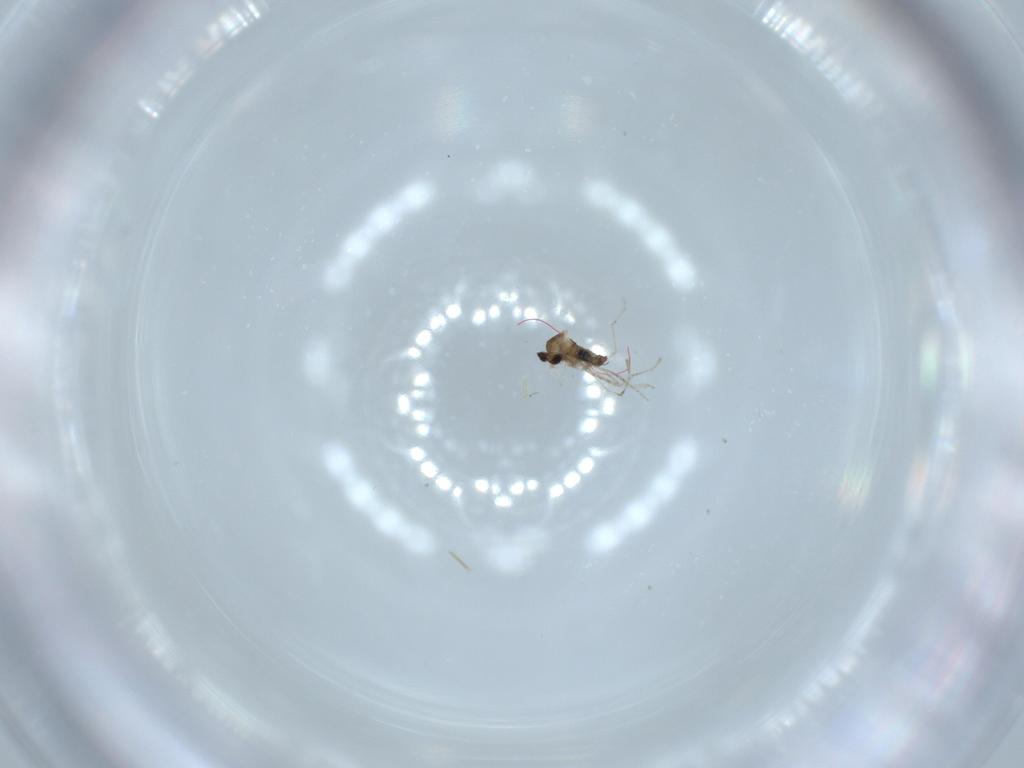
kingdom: Animalia
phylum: Arthropoda
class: Insecta
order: Diptera
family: Cecidomyiidae
